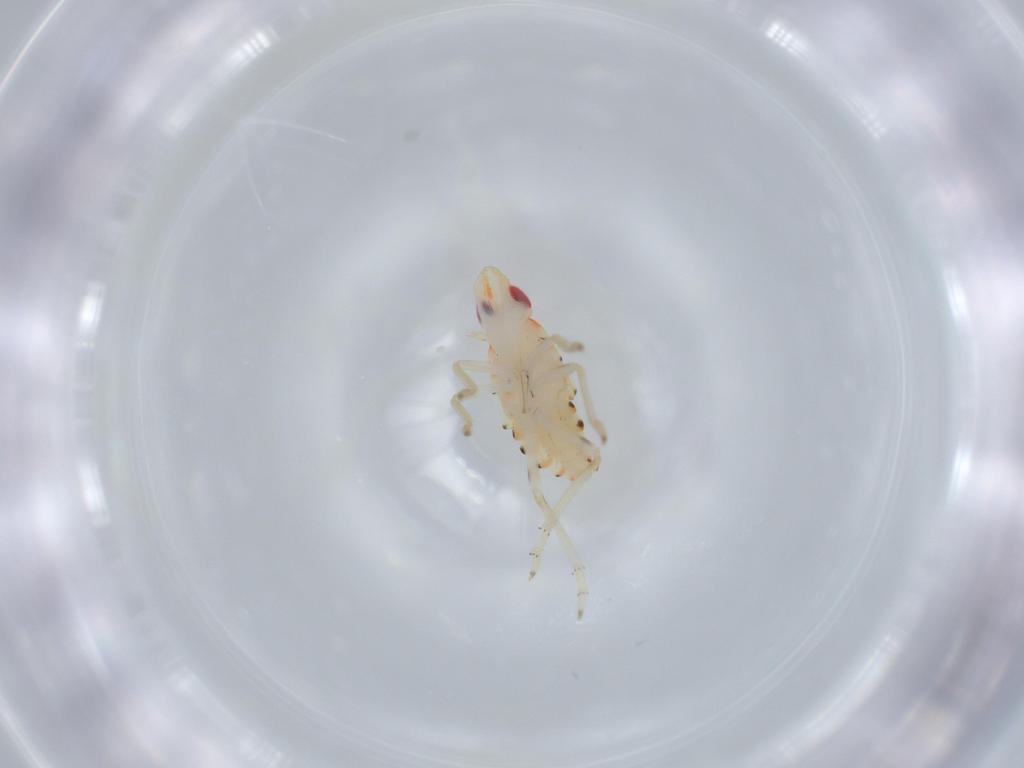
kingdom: Animalia
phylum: Arthropoda
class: Insecta
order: Hemiptera
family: Tropiduchidae
